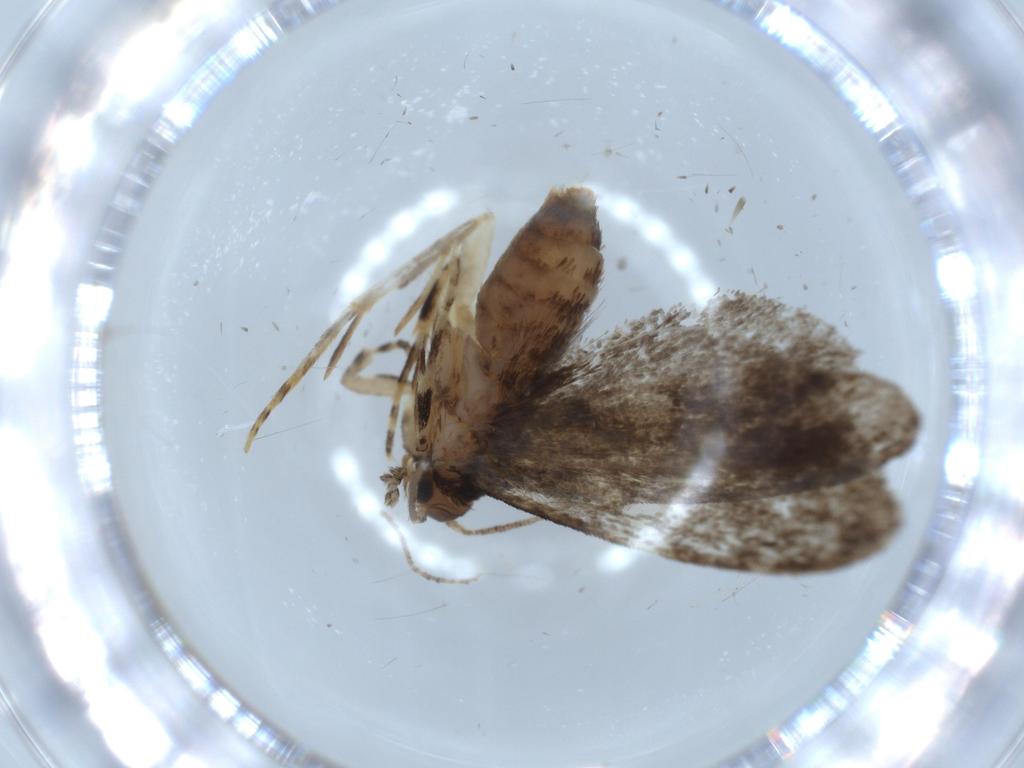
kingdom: Animalia
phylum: Arthropoda
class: Insecta
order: Lepidoptera
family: Tineidae
